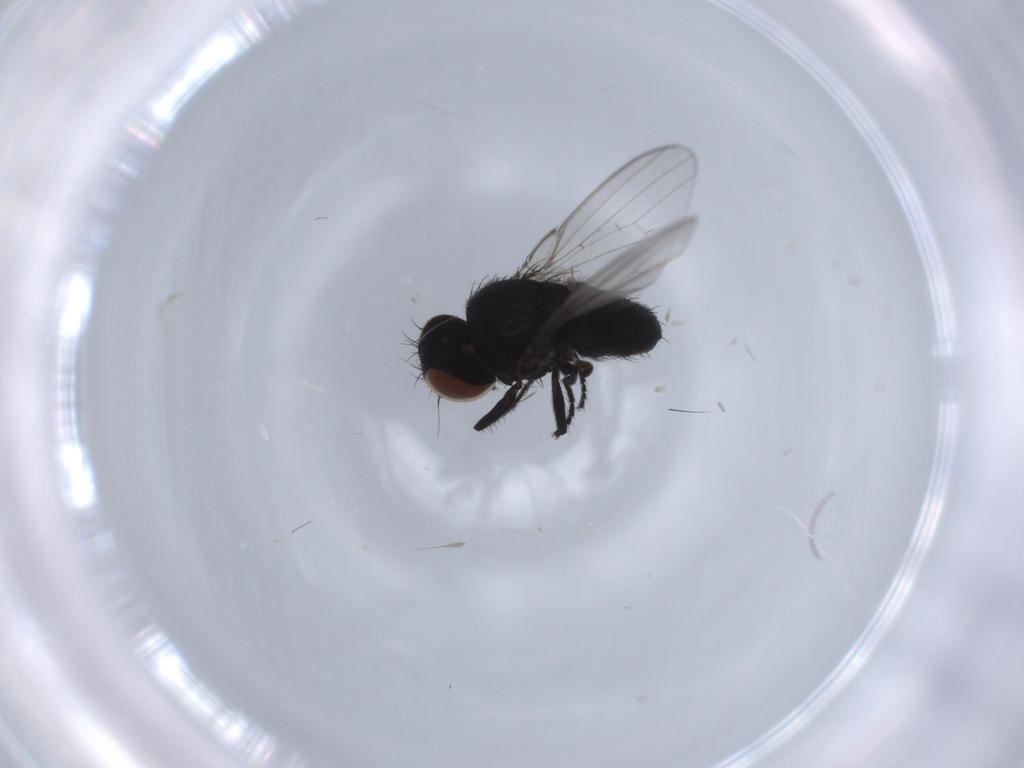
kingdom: Animalia
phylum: Arthropoda
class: Insecta
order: Diptera
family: Milichiidae
